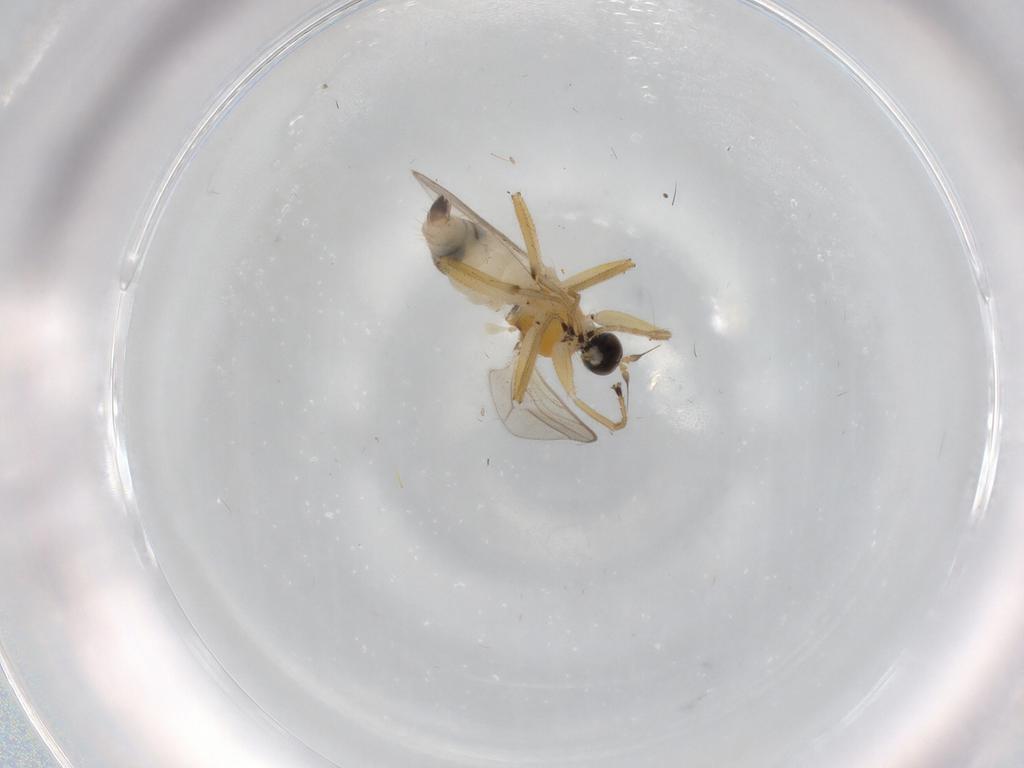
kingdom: Animalia
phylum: Arthropoda
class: Insecta
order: Diptera
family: Hybotidae
